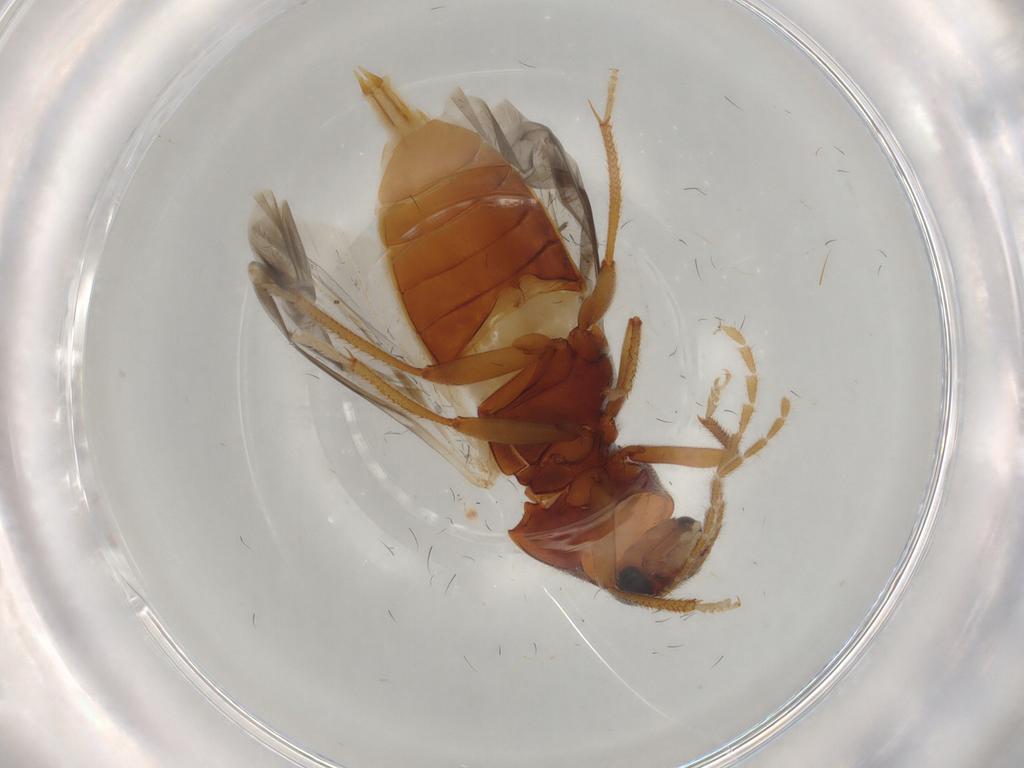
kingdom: Animalia
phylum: Arthropoda
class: Insecta
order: Coleoptera
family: Ptilodactylidae
